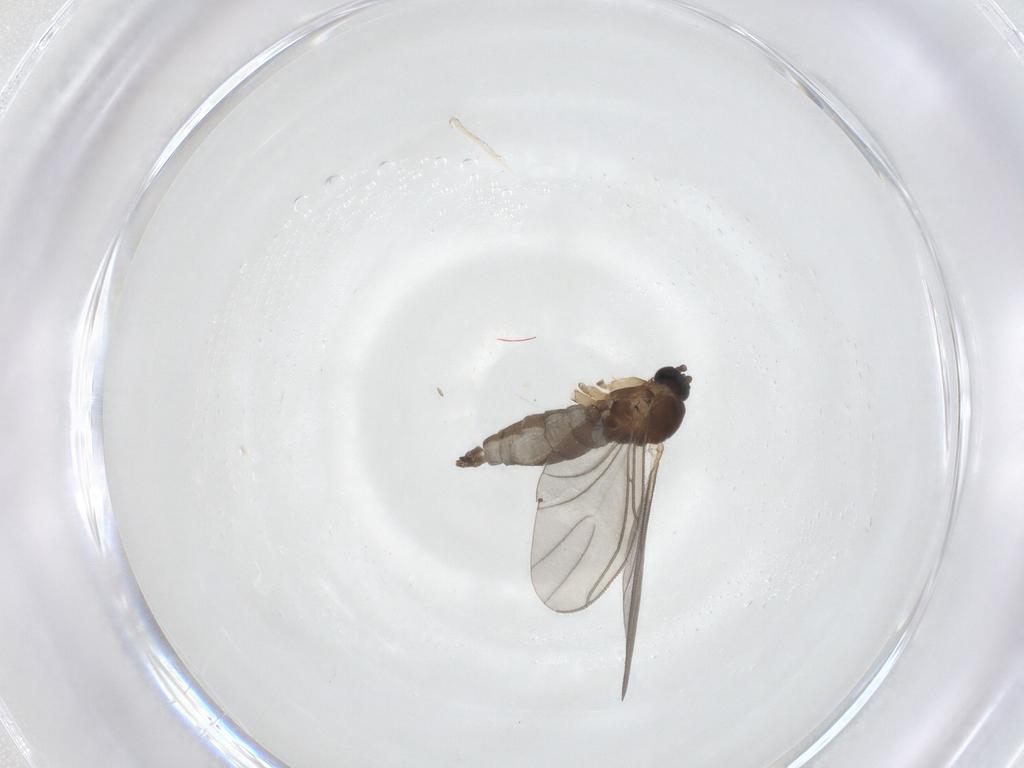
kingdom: Animalia
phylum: Arthropoda
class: Insecta
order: Diptera
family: Sciaridae
